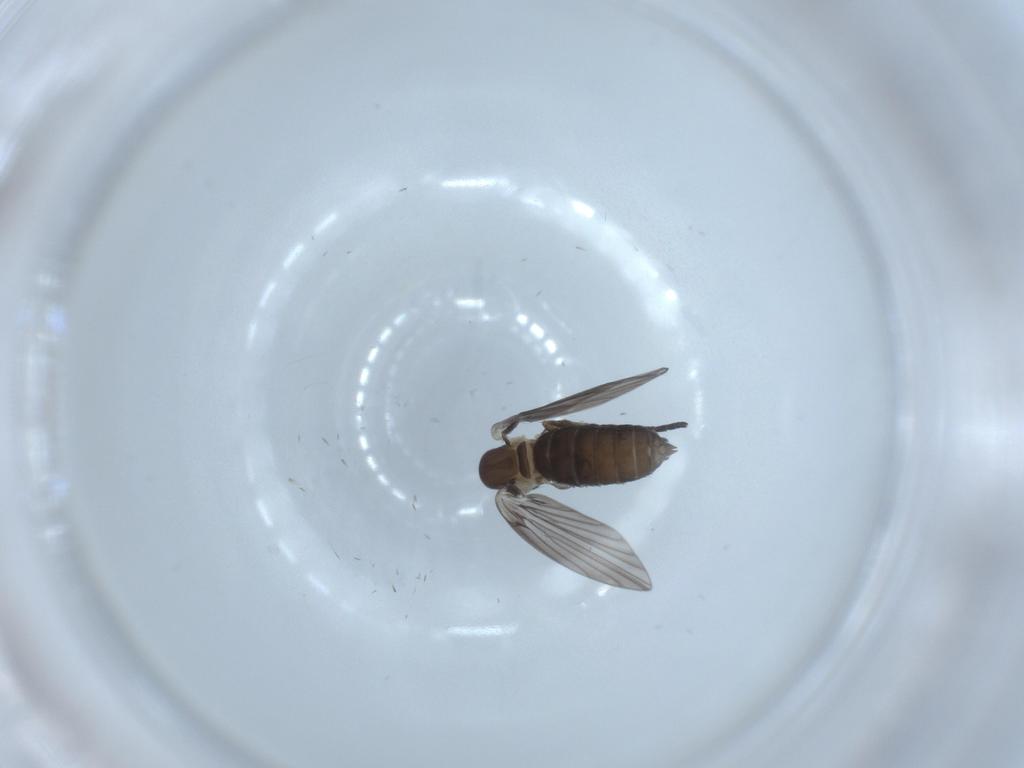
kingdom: Animalia
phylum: Arthropoda
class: Insecta
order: Diptera
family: Psychodidae
